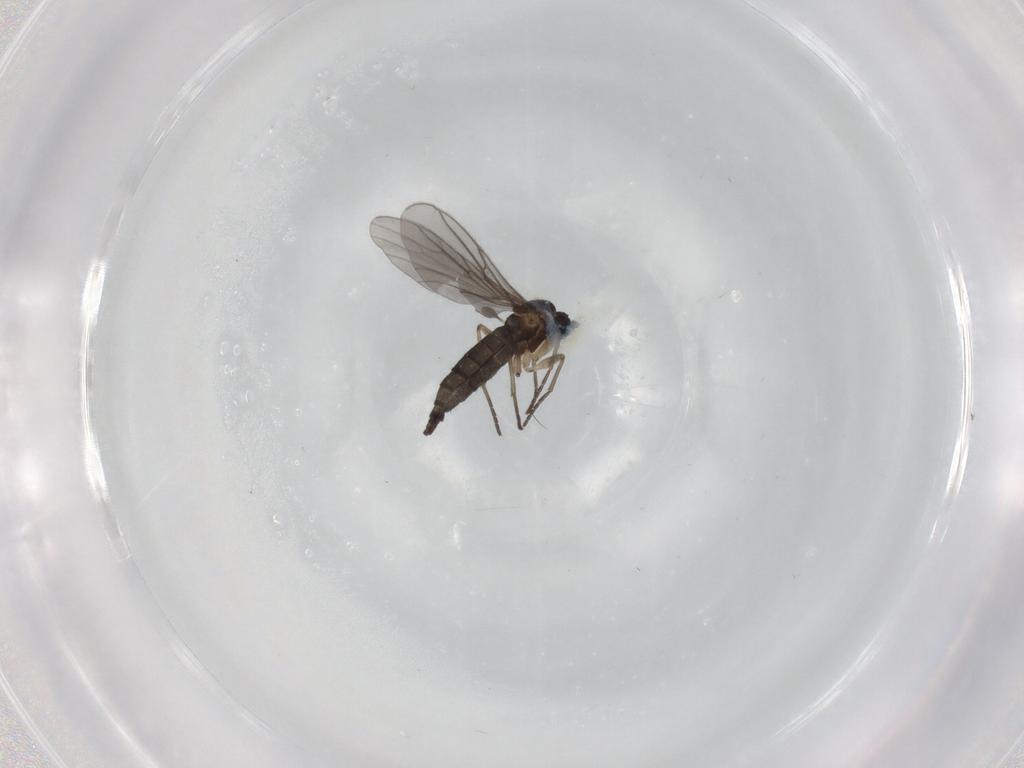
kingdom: Animalia
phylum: Arthropoda
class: Insecta
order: Diptera
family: Sciaridae
